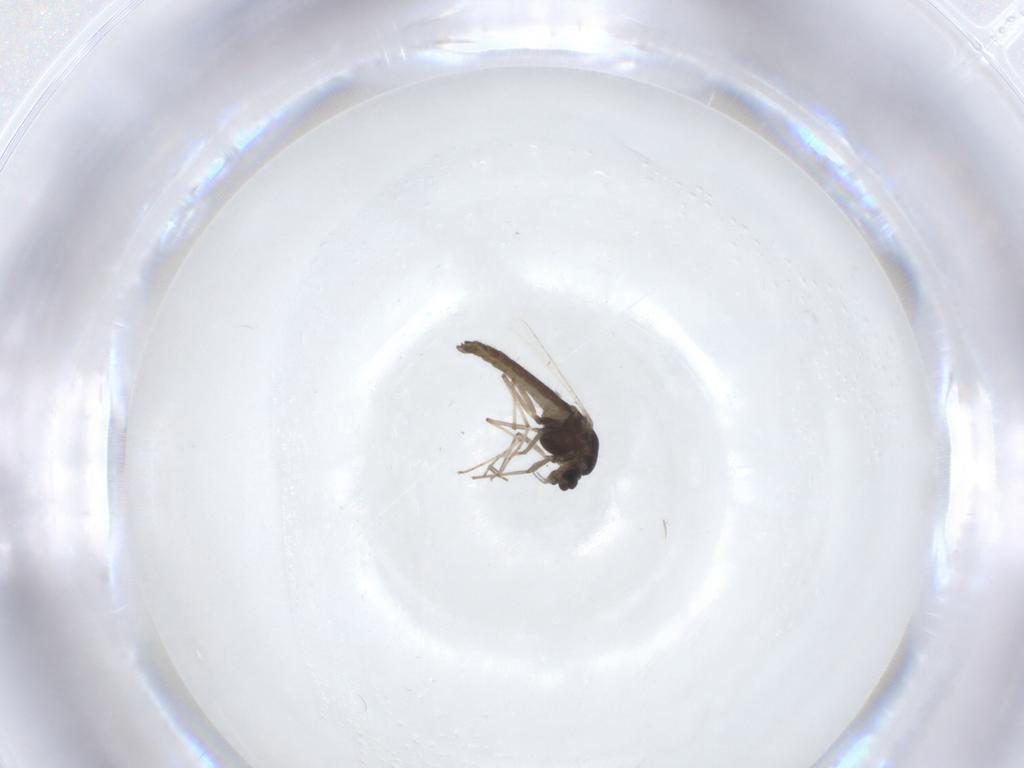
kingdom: Animalia
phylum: Arthropoda
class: Insecta
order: Diptera
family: Chironomidae
